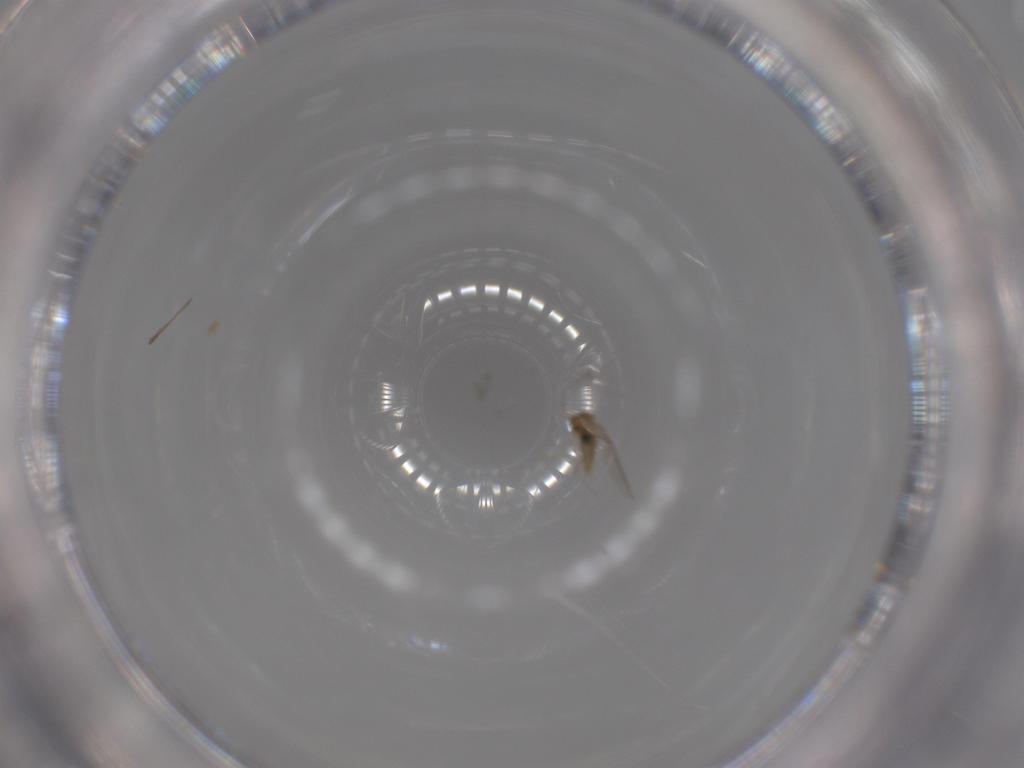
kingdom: Animalia
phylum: Arthropoda
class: Insecta
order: Diptera
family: Cecidomyiidae
